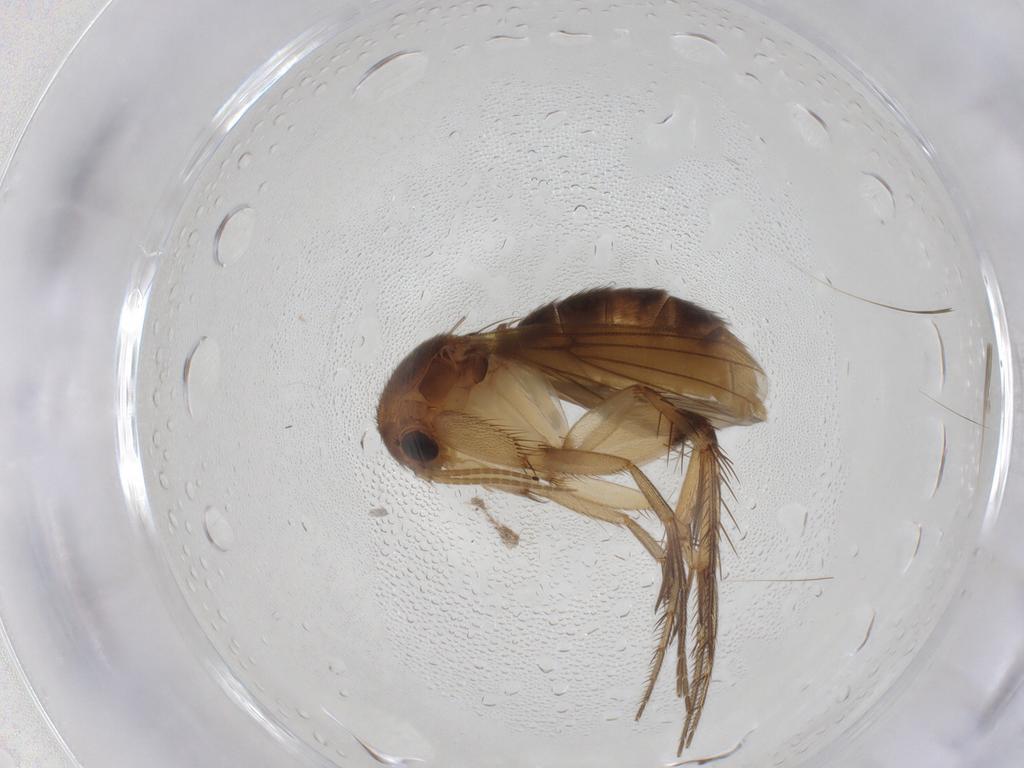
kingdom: Animalia
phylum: Arthropoda
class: Insecta
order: Diptera
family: Mycetophilidae
